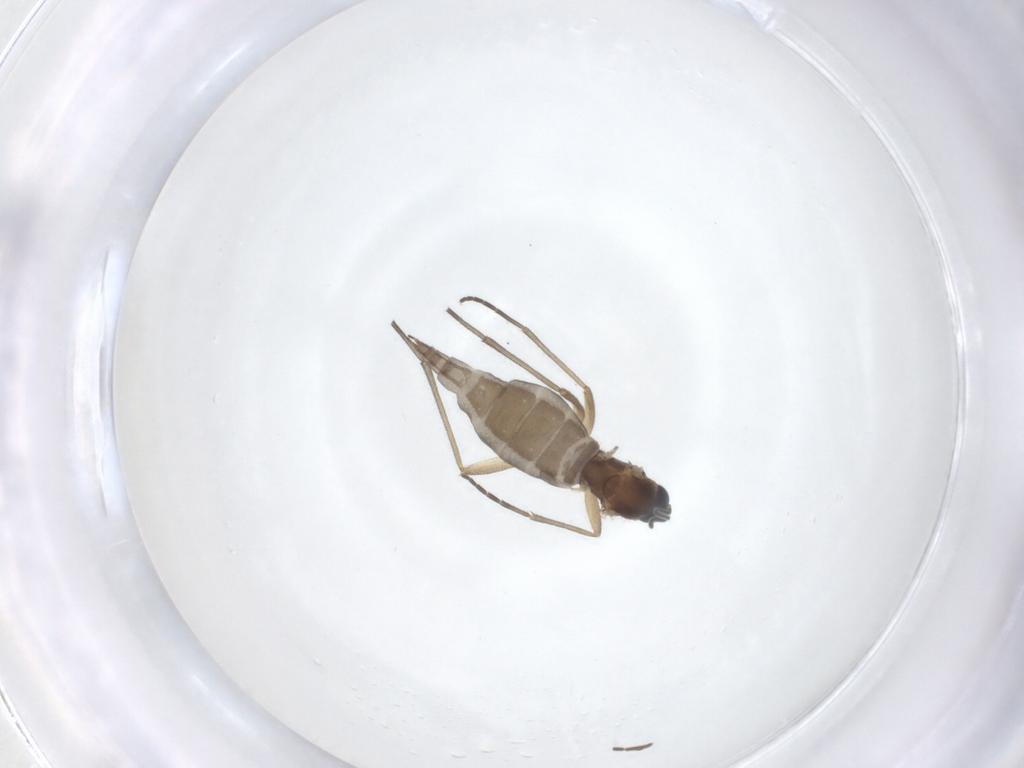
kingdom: Animalia
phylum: Arthropoda
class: Insecta
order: Diptera
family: Sciaridae
